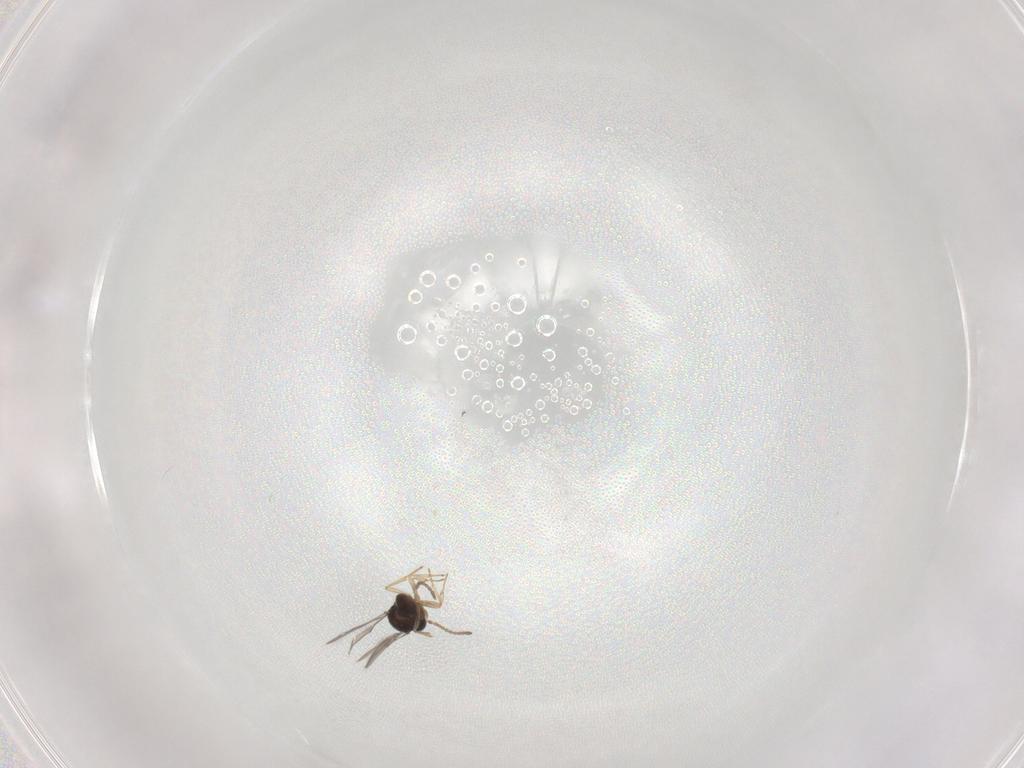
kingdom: Animalia
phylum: Arthropoda
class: Insecta
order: Hymenoptera
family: Scelionidae
